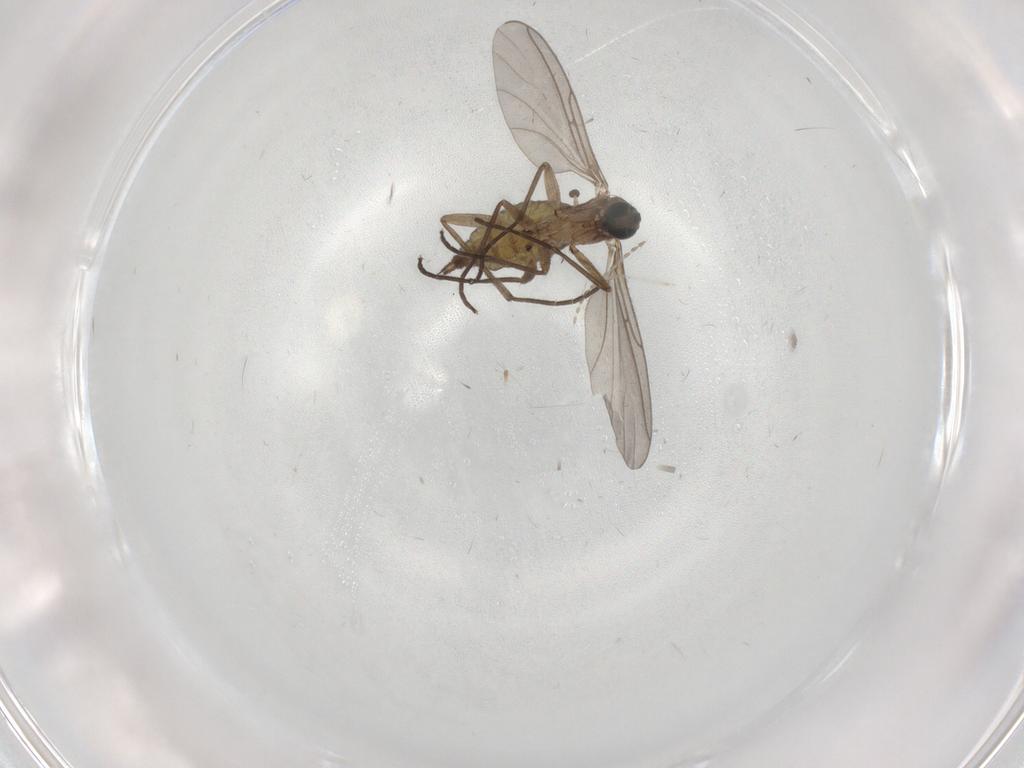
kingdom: Animalia
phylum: Arthropoda
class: Insecta
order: Diptera
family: Sciaridae
